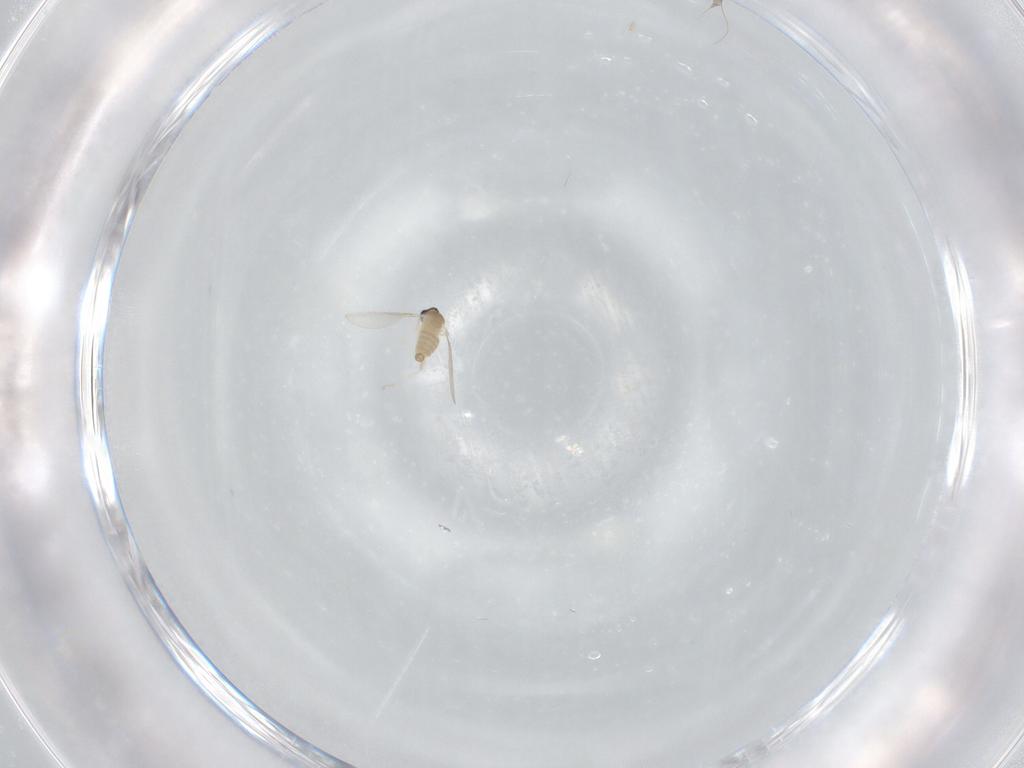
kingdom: Animalia
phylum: Arthropoda
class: Insecta
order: Diptera
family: Cecidomyiidae
